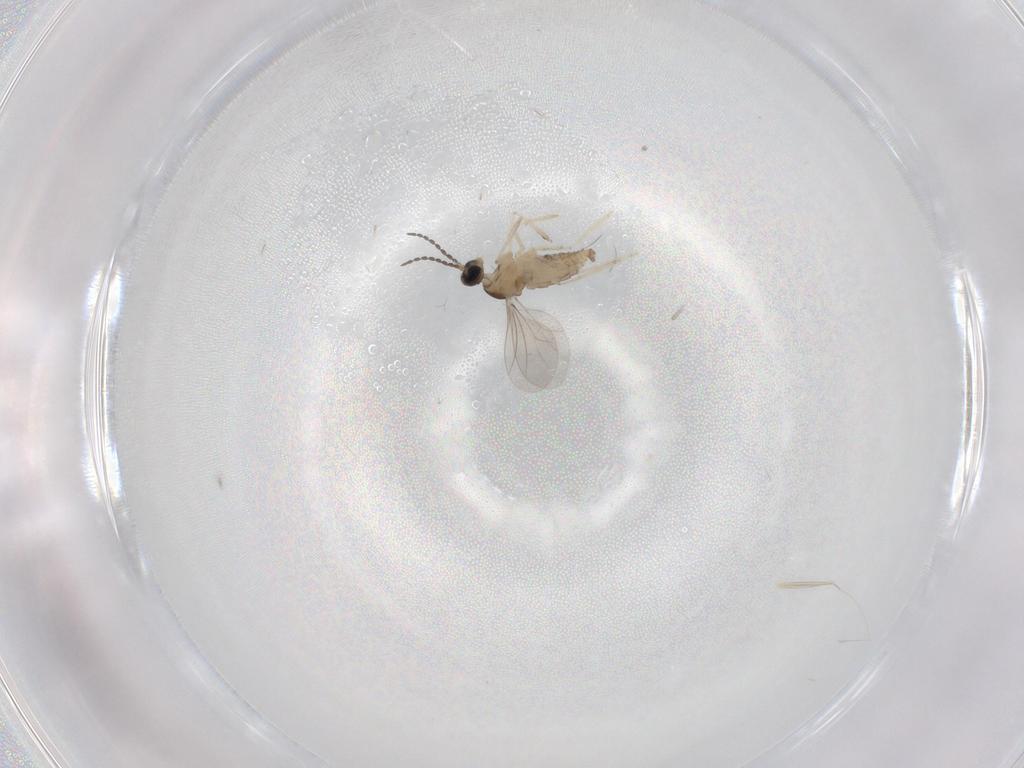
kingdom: Animalia
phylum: Arthropoda
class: Insecta
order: Diptera
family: Cecidomyiidae
